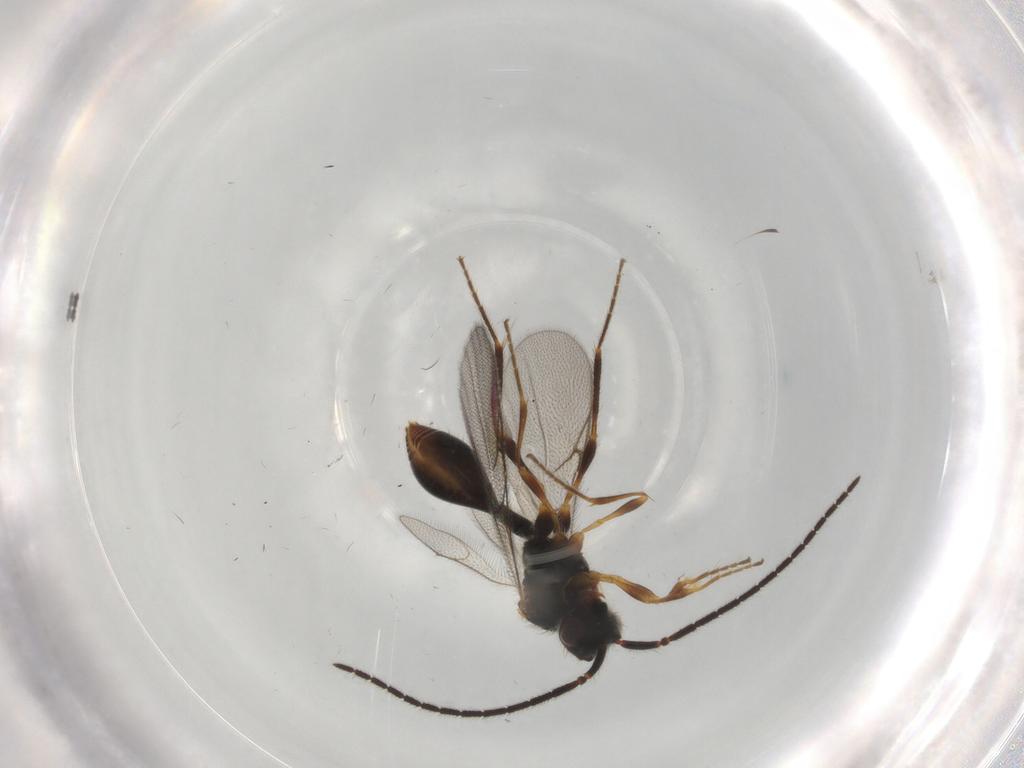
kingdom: Animalia
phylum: Arthropoda
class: Insecta
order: Hymenoptera
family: Diapriidae
